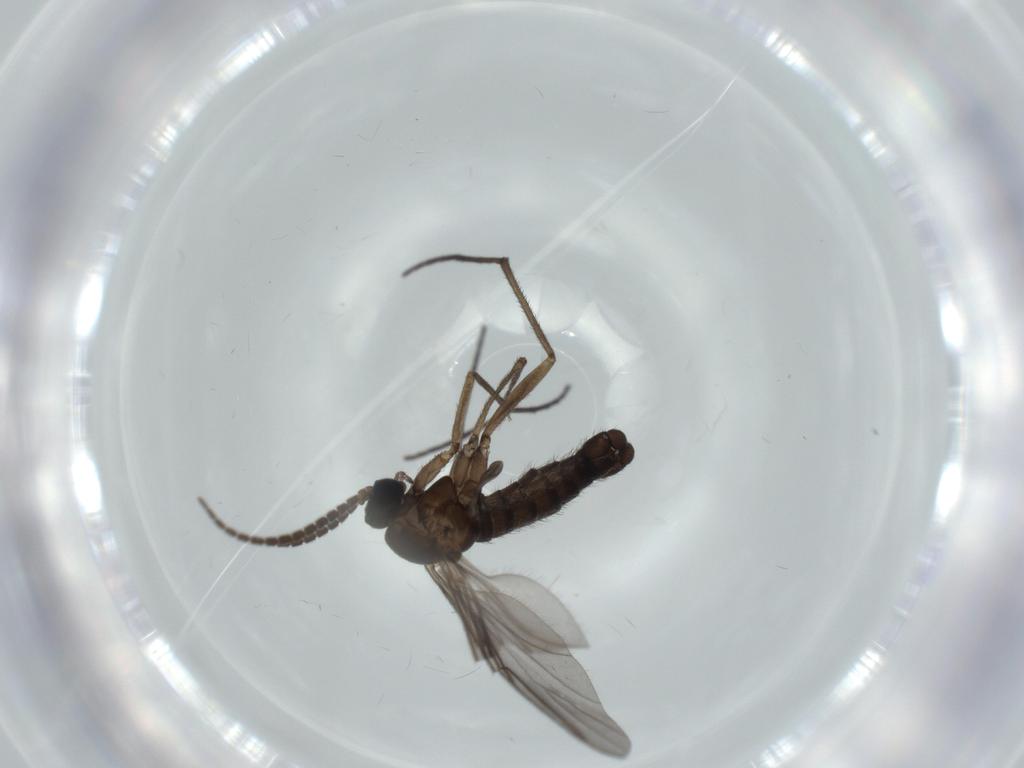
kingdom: Animalia
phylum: Arthropoda
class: Insecta
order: Diptera
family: Sciaridae
